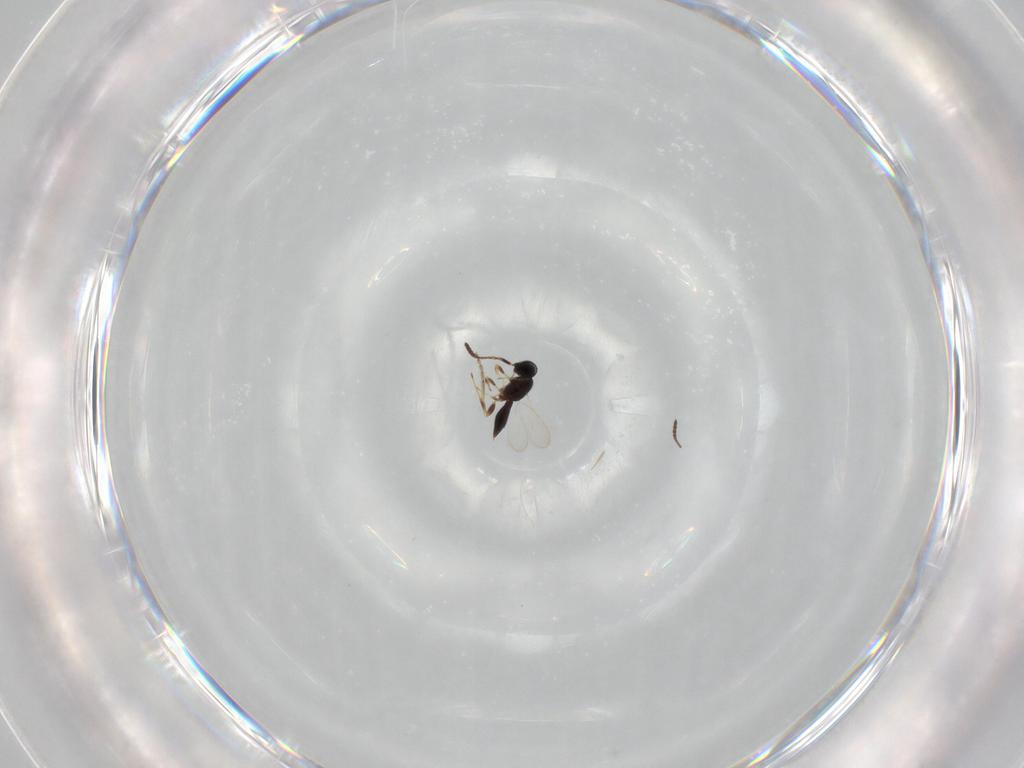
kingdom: Animalia
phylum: Arthropoda
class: Insecta
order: Hymenoptera
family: Scelionidae
